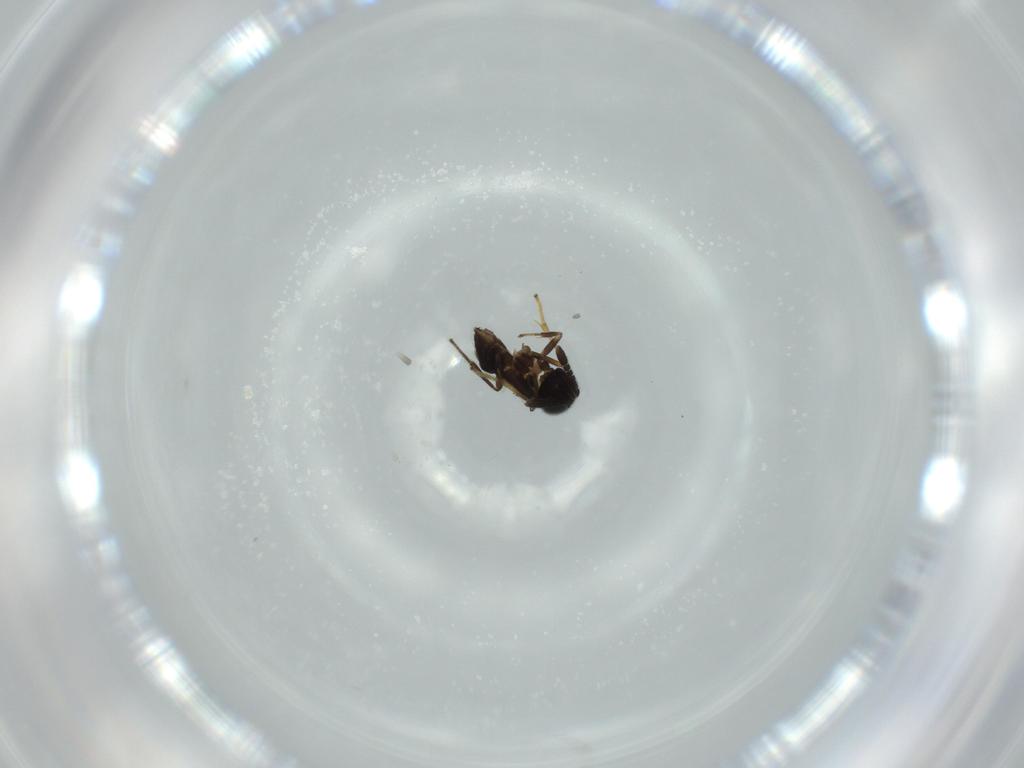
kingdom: Animalia
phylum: Arthropoda
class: Insecta
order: Hymenoptera
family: Encyrtidae
